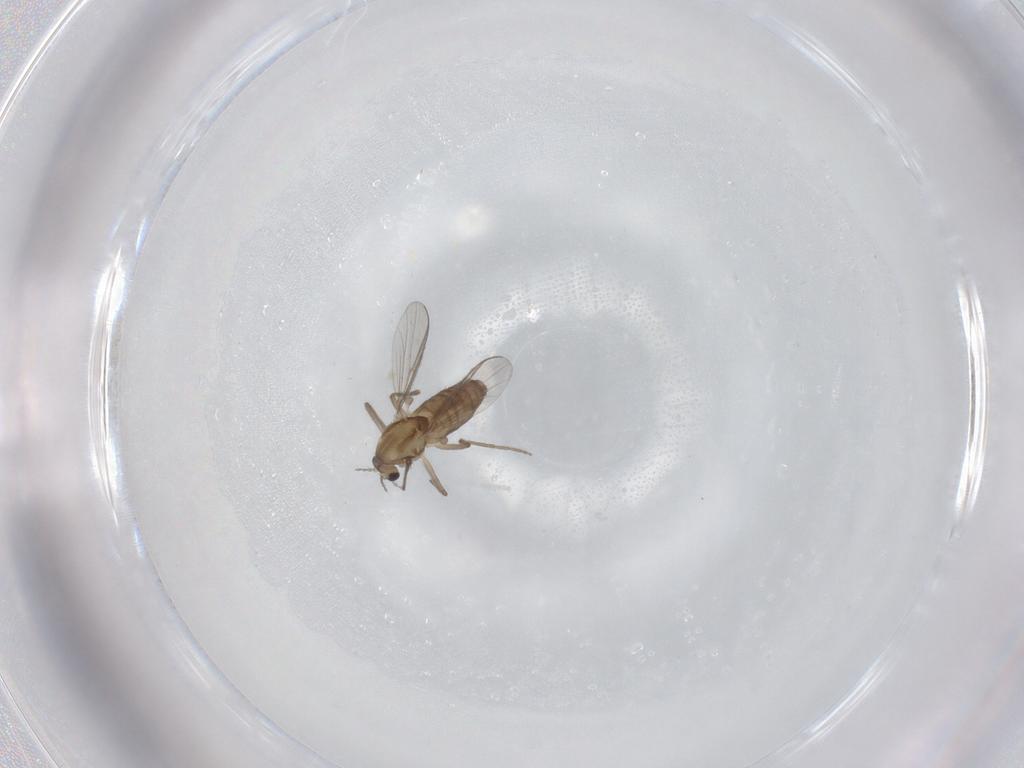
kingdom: Animalia
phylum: Arthropoda
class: Insecta
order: Diptera
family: Chironomidae
